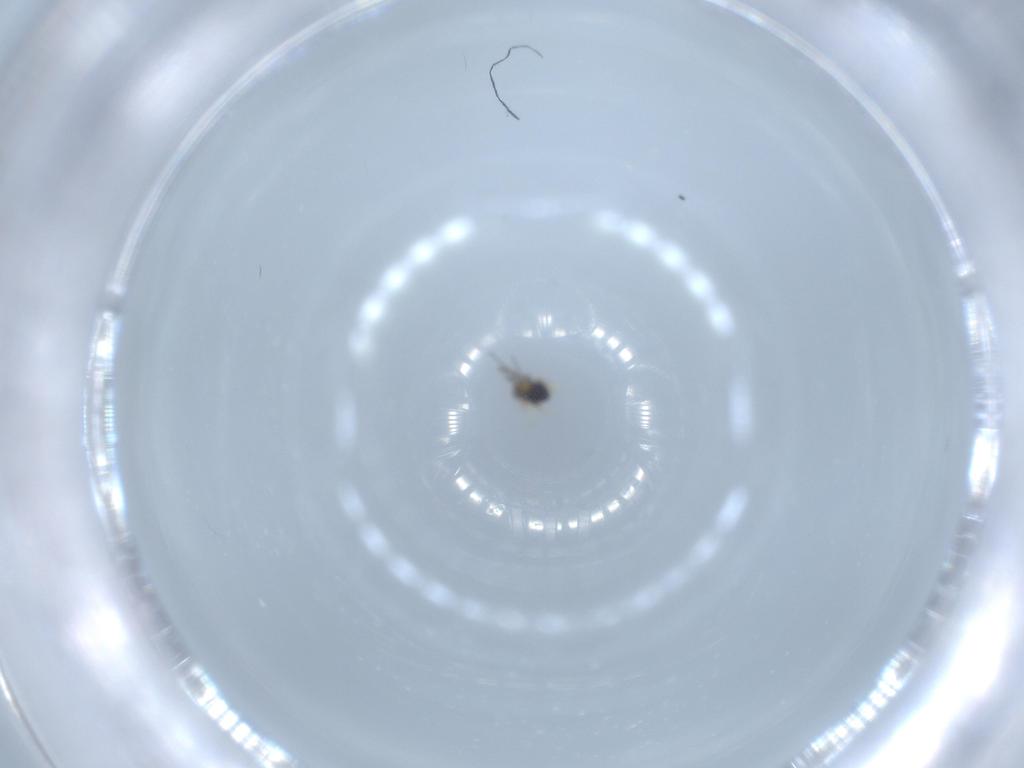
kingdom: Animalia
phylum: Arthropoda
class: Insecta
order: Hymenoptera
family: Trichogrammatidae
